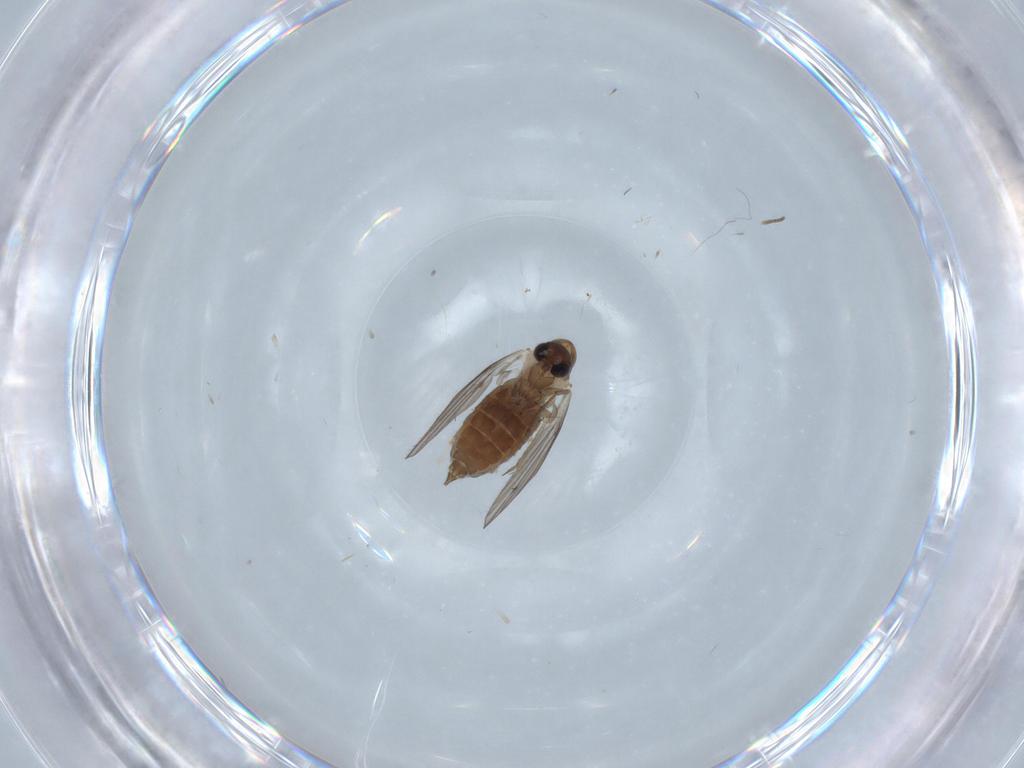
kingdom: Animalia
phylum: Arthropoda
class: Insecta
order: Diptera
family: Psychodidae
